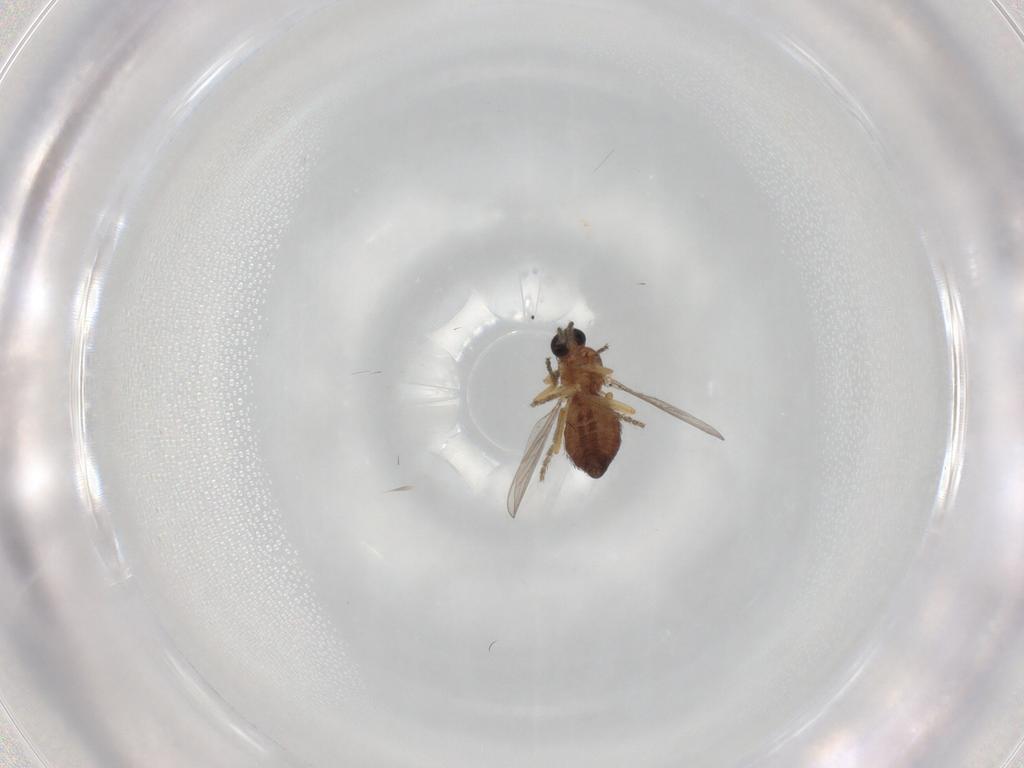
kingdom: Animalia
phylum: Arthropoda
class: Insecta
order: Diptera
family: Ceratopogonidae
